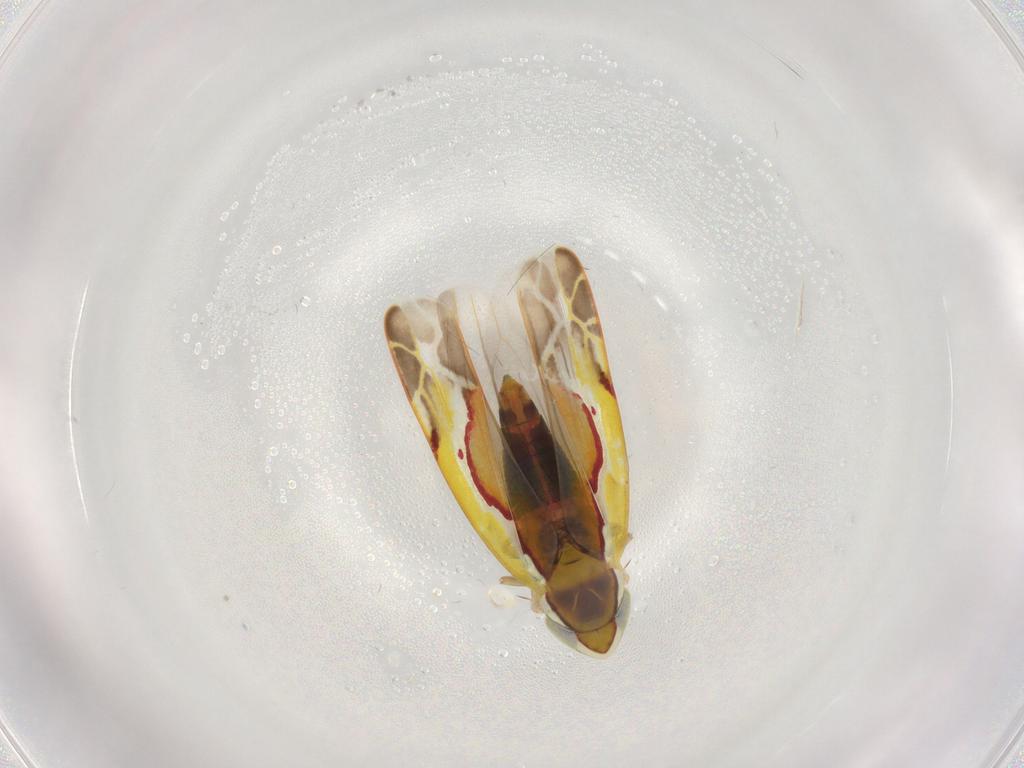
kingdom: Animalia
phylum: Arthropoda
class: Insecta
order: Hemiptera
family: Cicadellidae
